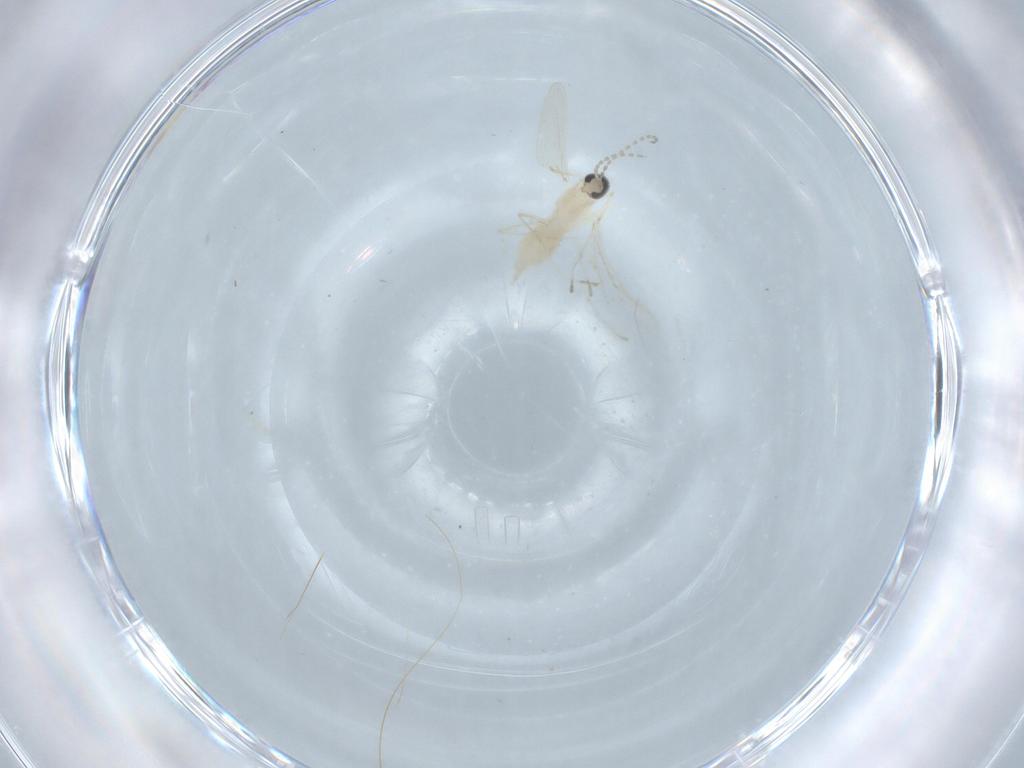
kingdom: Animalia
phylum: Arthropoda
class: Insecta
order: Diptera
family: Cecidomyiidae
